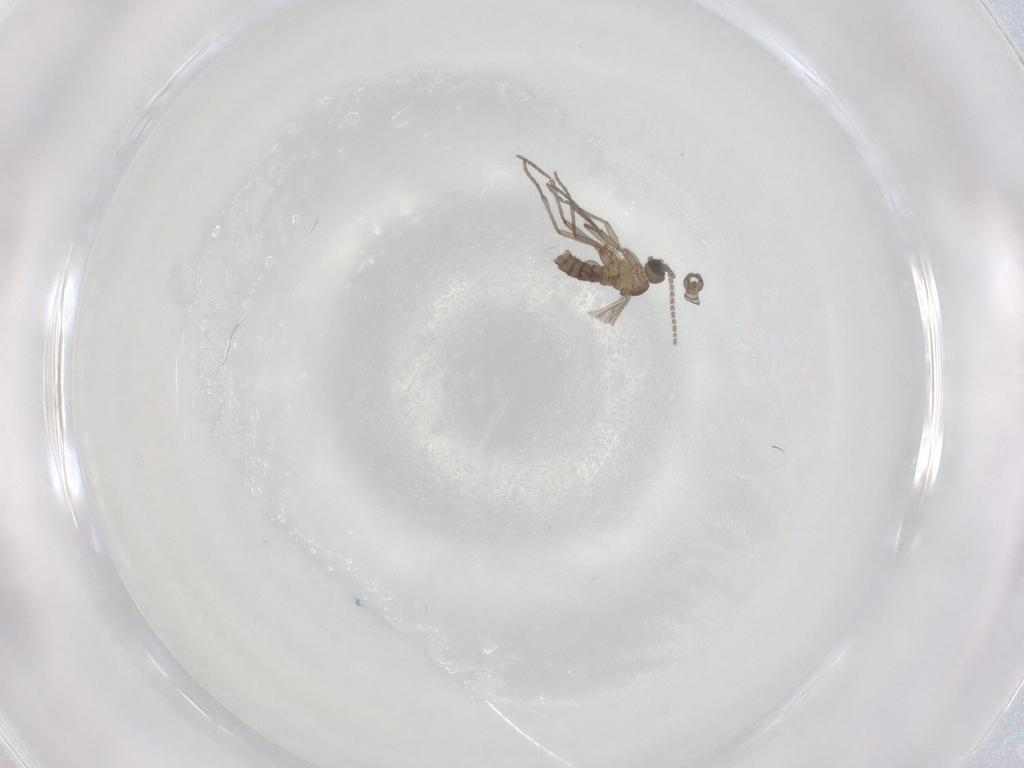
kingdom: Animalia
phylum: Arthropoda
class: Insecta
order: Diptera
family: Sciaridae
